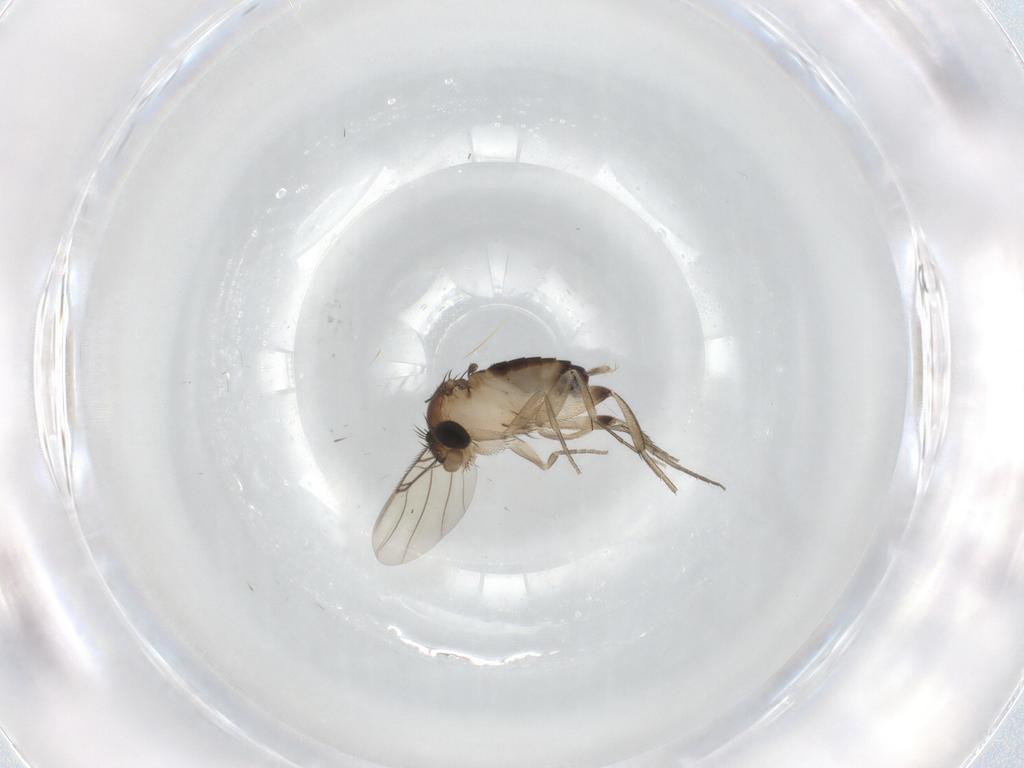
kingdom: Animalia
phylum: Arthropoda
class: Insecta
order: Diptera
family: Phoridae
